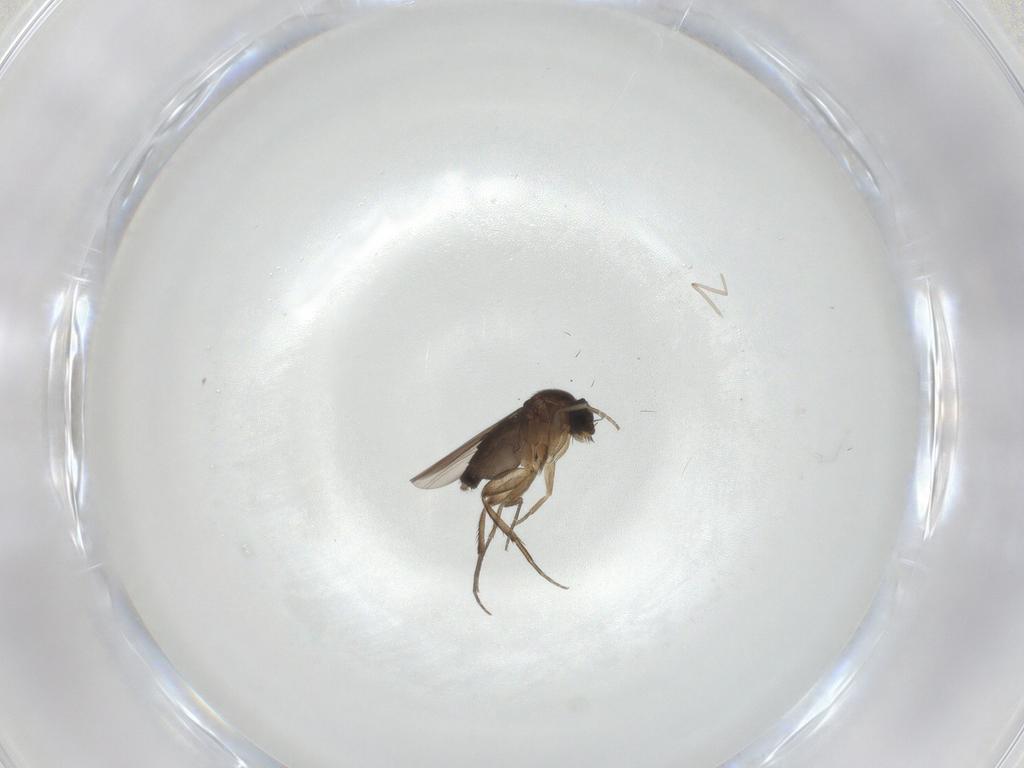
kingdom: Animalia
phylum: Arthropoda
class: Insecta
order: Diptera
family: Phoridae
